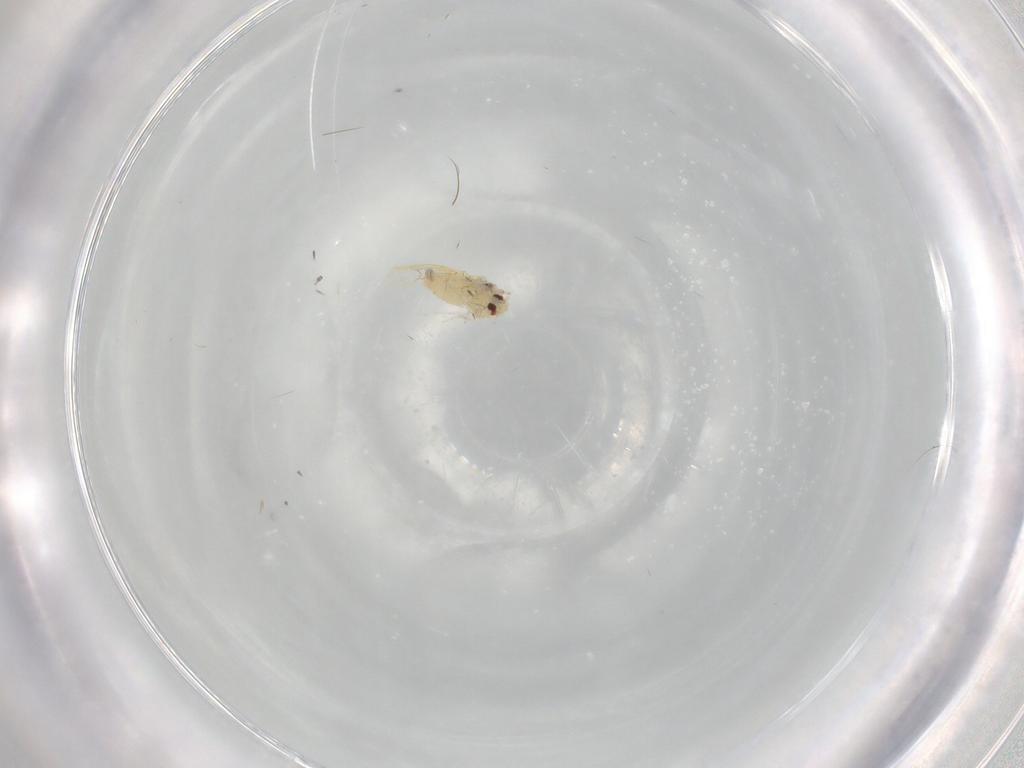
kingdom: Animalia
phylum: Arthropoda
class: Insecta
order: Hemiptera
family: Aleyrodidae
